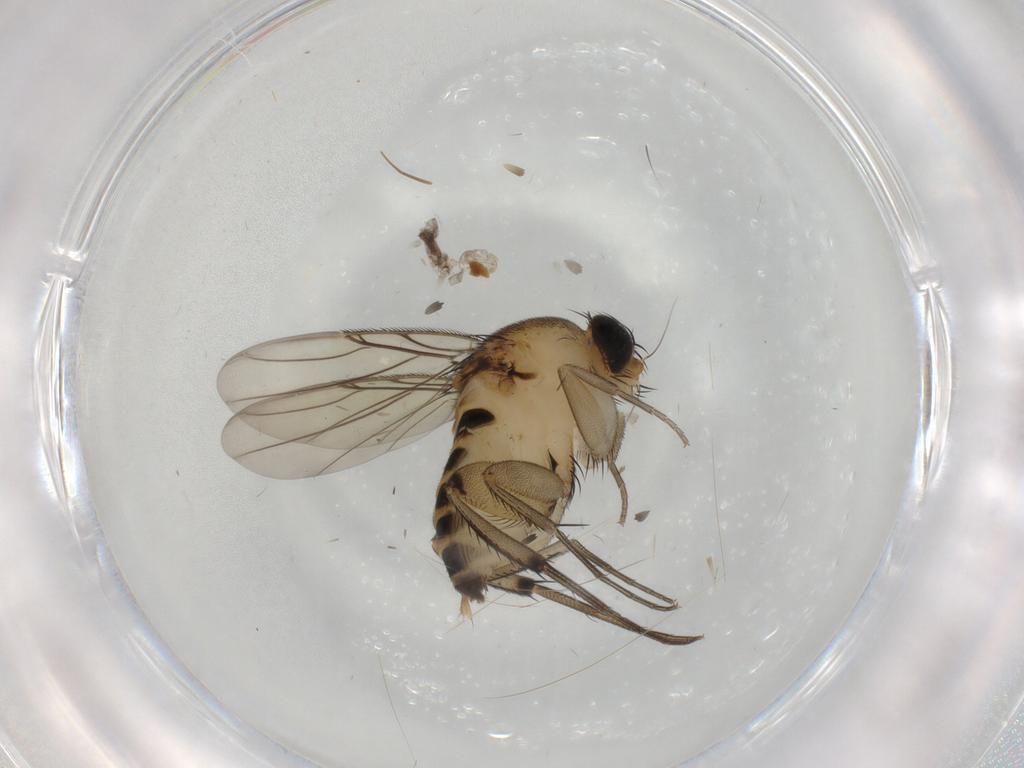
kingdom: Animalia
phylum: Arthropoda
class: Insecta
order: Diptera
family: Phoridae
